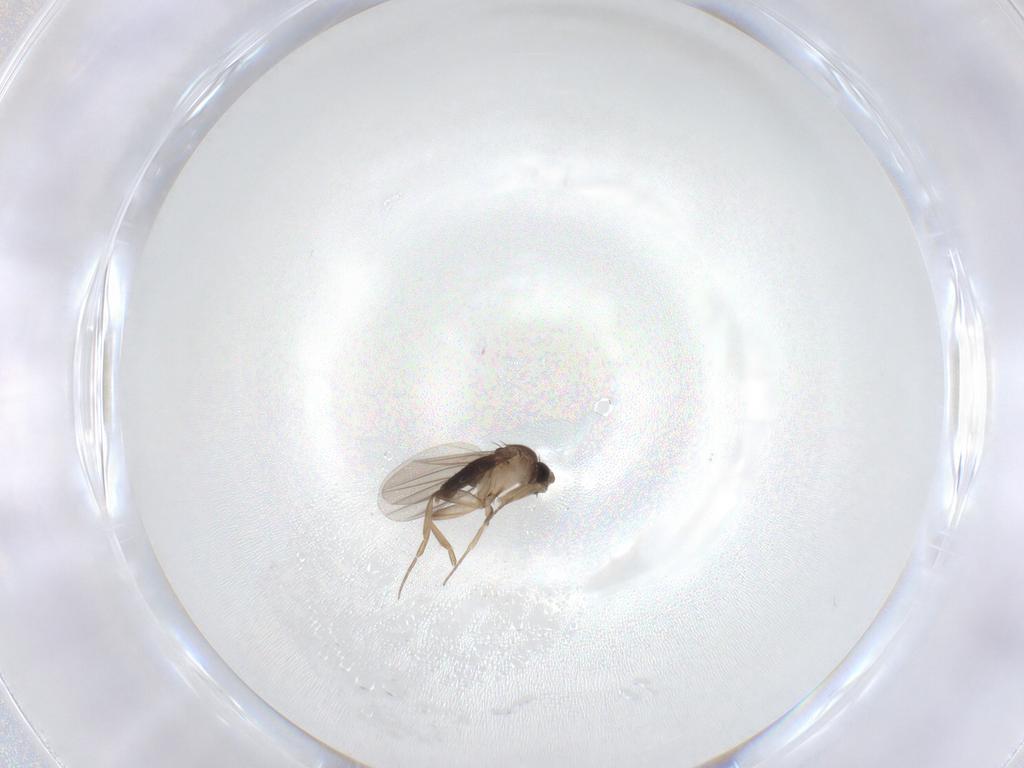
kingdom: Animalia
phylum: Arthropoda
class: Insecta
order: Diptera
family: Phoridae
